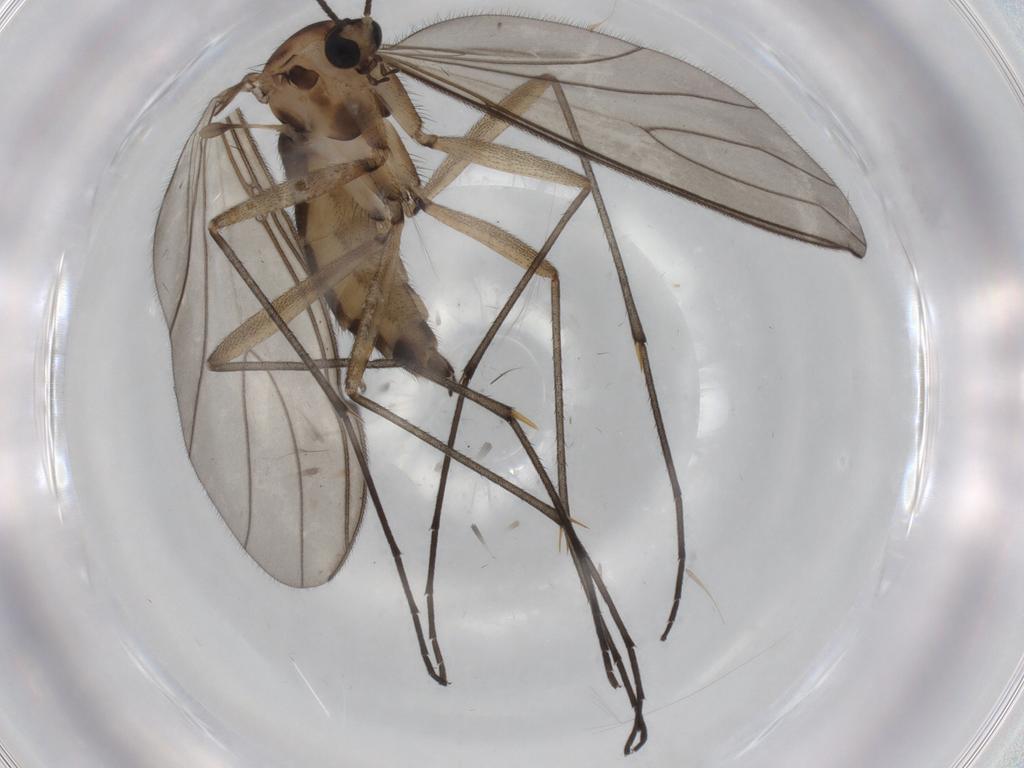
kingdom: Animalia
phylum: Arthropoda
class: Insecta
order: Diptera
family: Sciaridae
